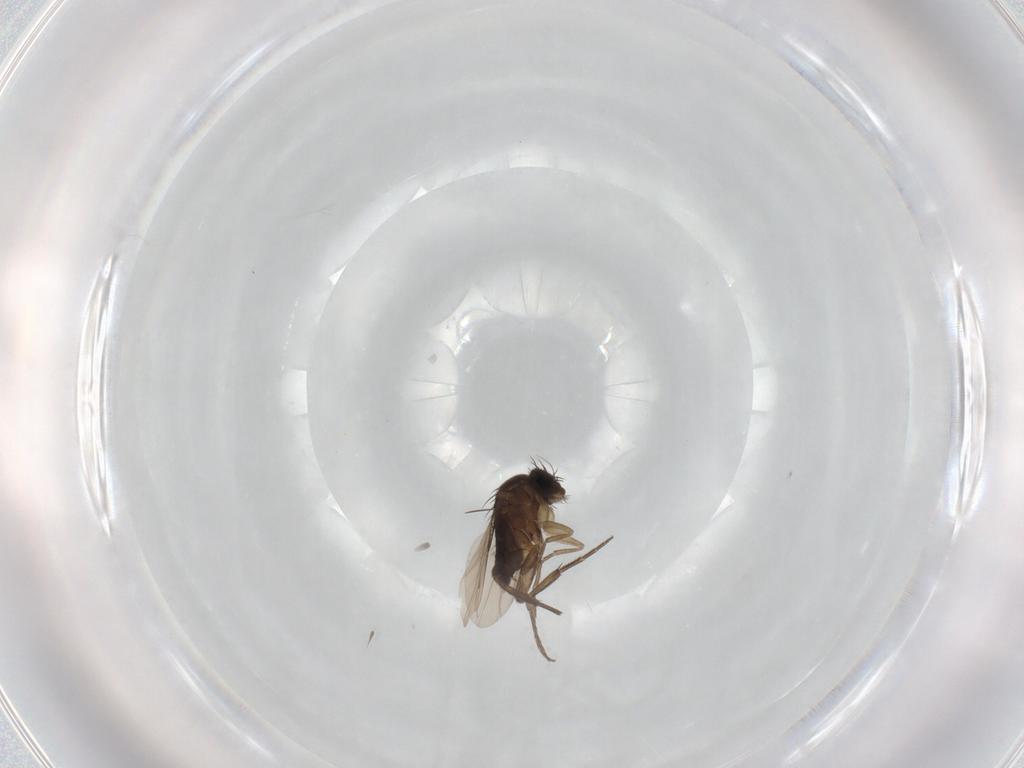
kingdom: Animalia
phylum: Arthropoda
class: Insecta
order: Diptera
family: Phoridae
